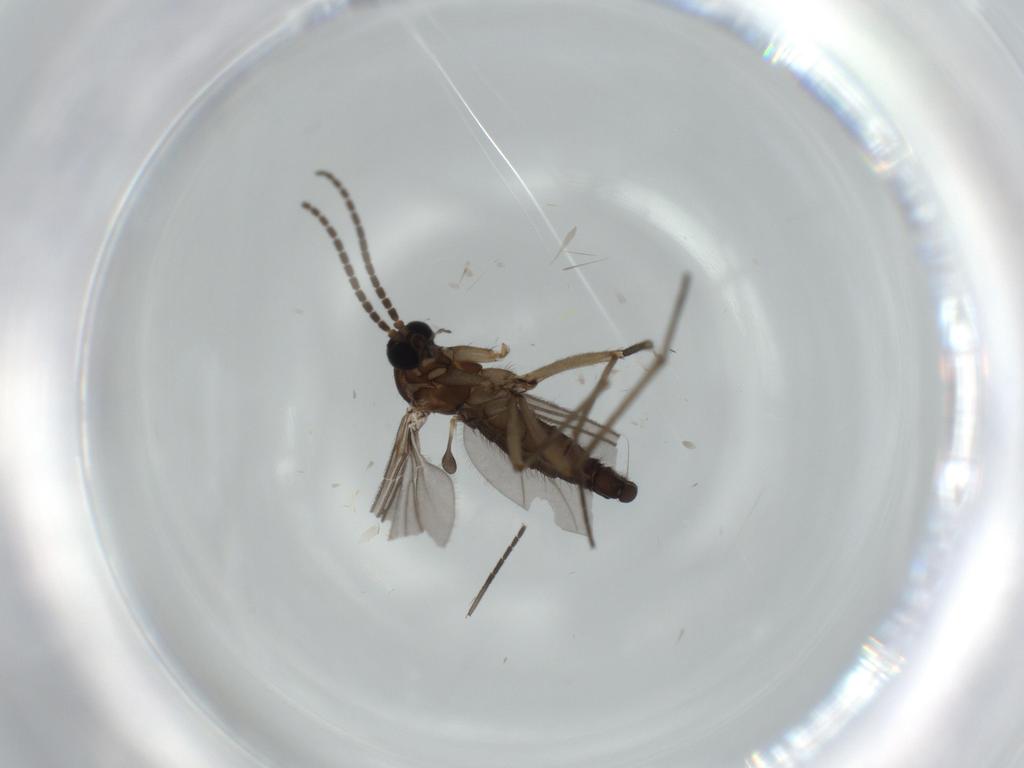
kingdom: Animalia
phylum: Arthropoda
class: Insecta
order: Diptera
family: Sciaridae
